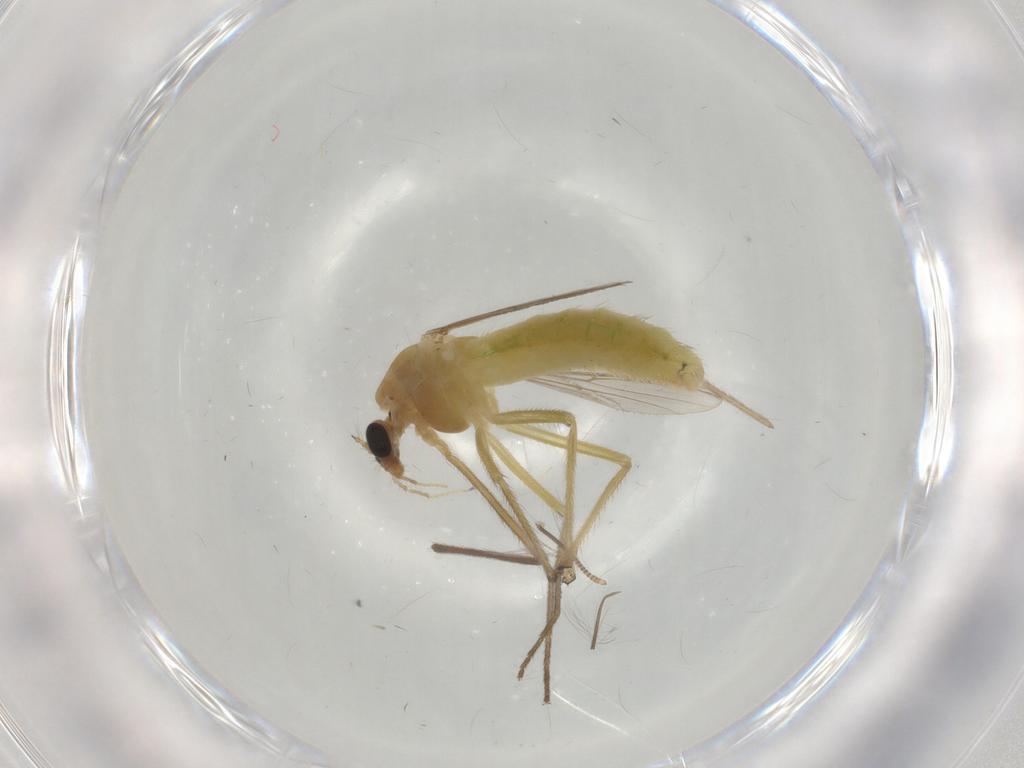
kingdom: Animalia
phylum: Arthropoda
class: Insecta
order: Diptera
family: Chironomidae
